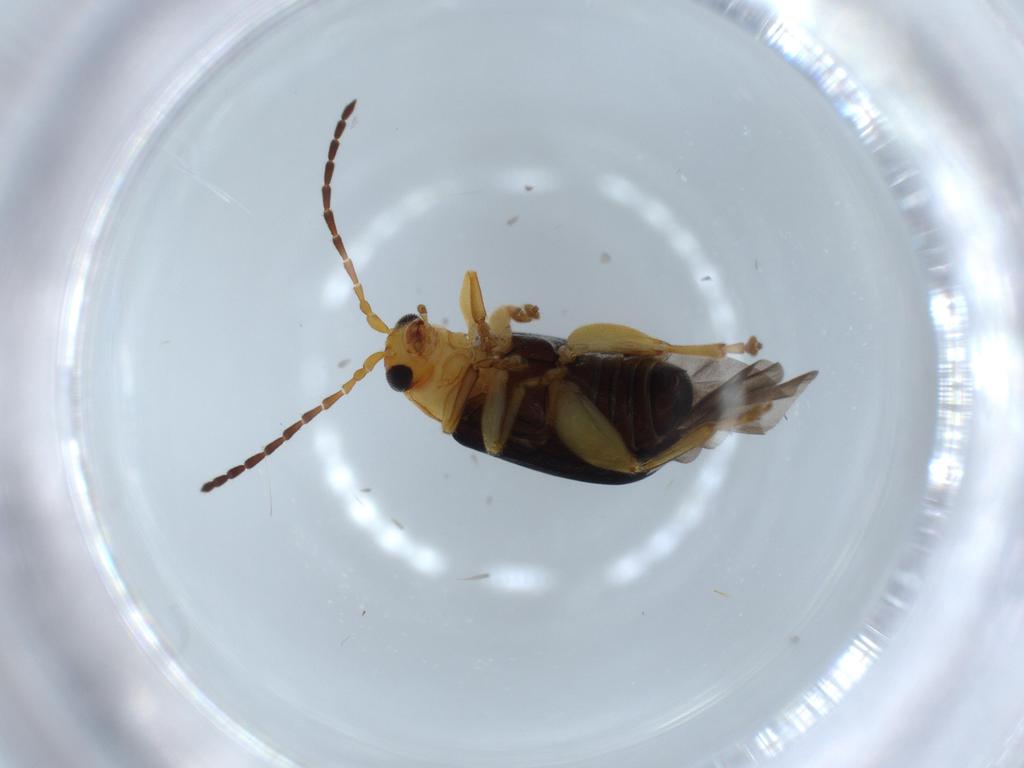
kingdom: Animalia
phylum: Arthropoda
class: Insecta
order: Coleoptera
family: Chrysomelidae
